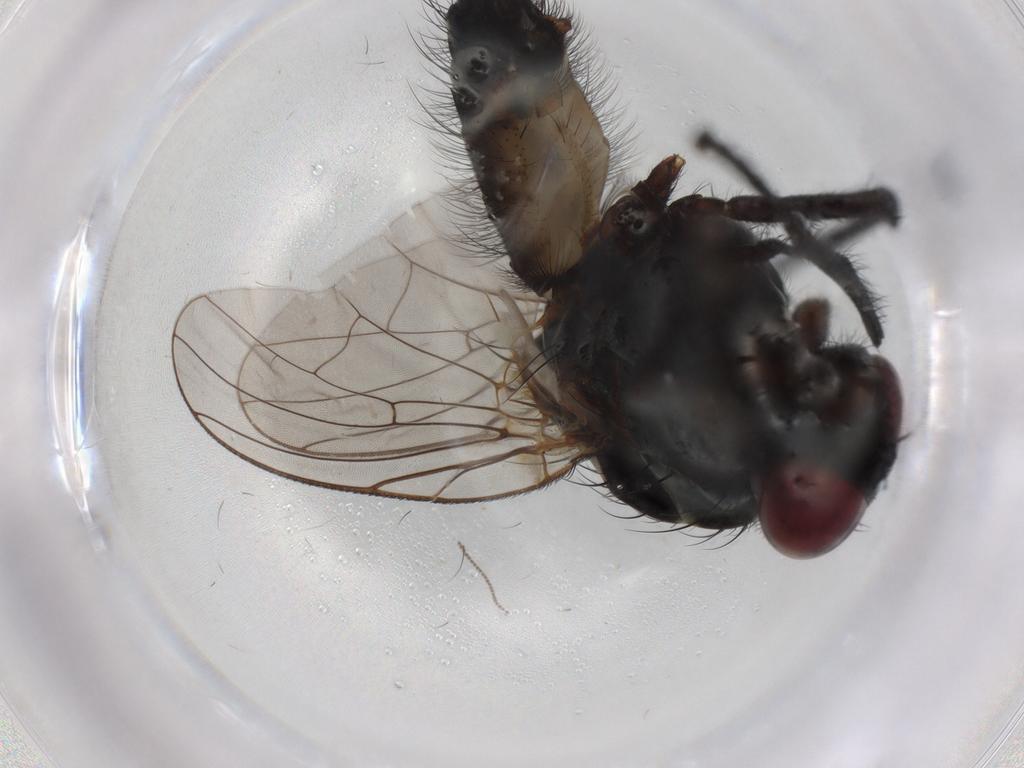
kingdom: Animalia
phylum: Arthropoda
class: Insecta
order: Diptera
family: Anthomyiidae
